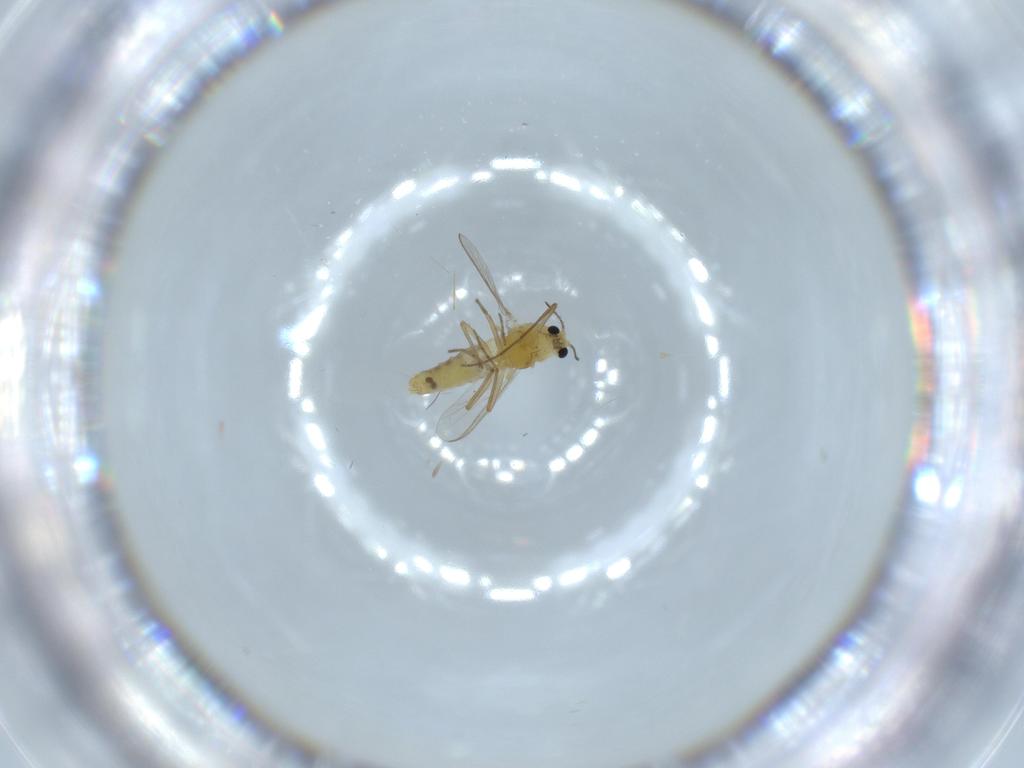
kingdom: Animalia
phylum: Arthropoda
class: Insecta
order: Diptera
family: Chironomidae
